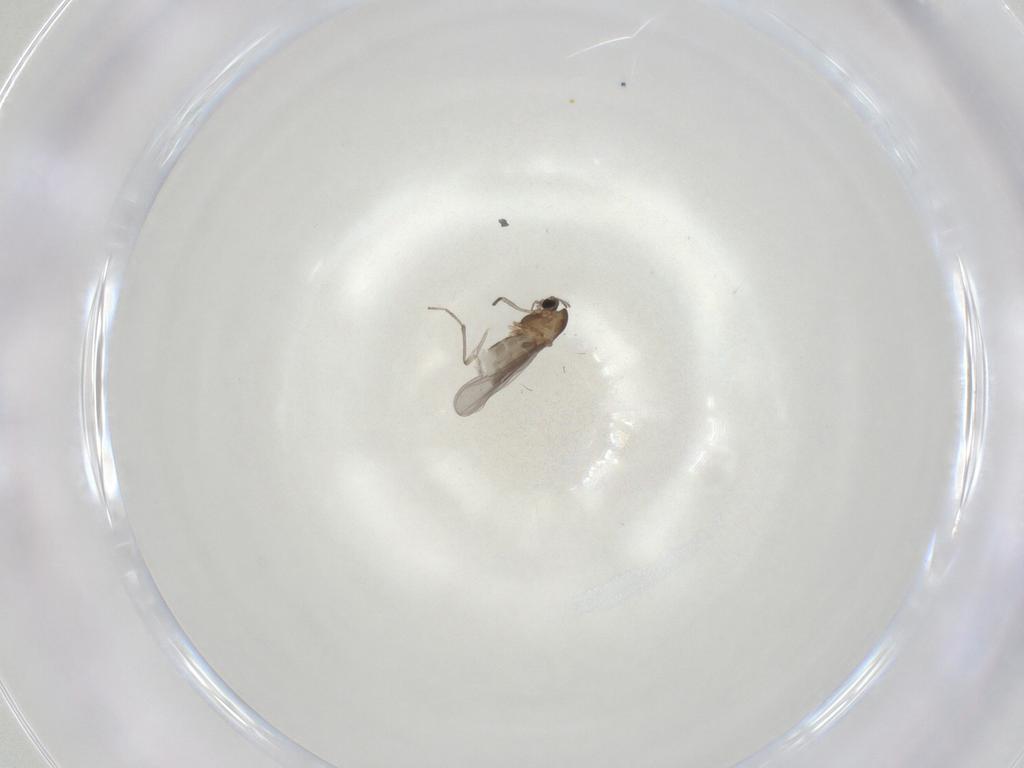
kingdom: Animalia
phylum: Arthropoda
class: Insecta
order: Diptera
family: Chironomidae
